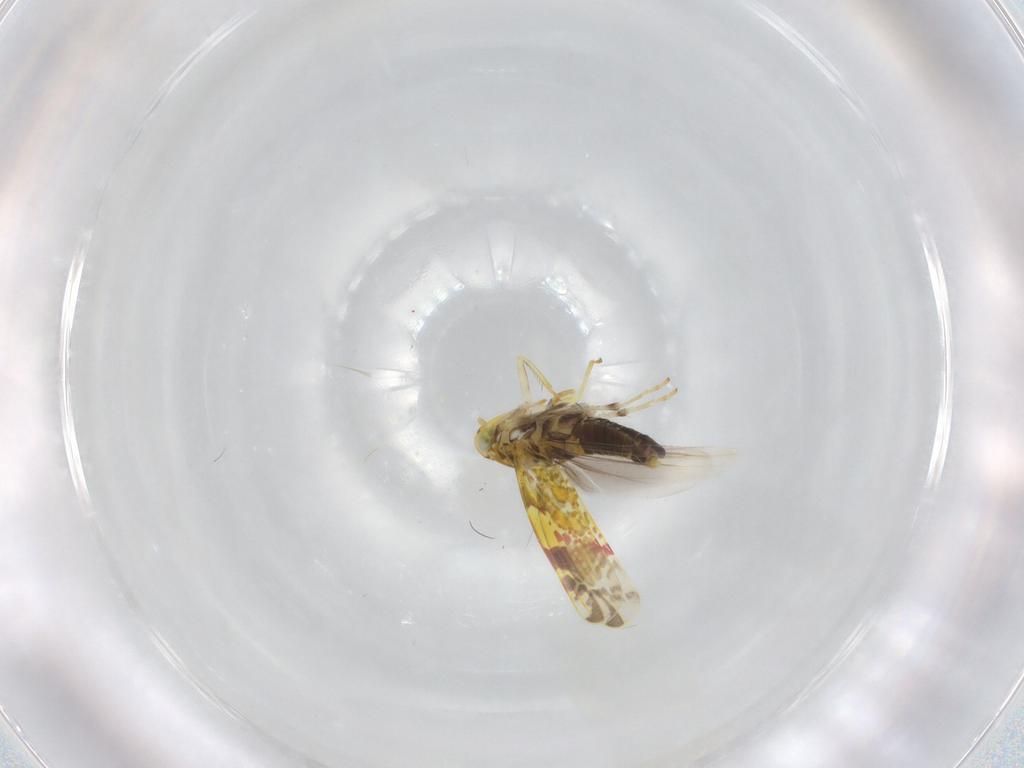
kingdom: Animalia
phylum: Arthropoda
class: Insecta
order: Hemiptera
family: Cicadellidae
